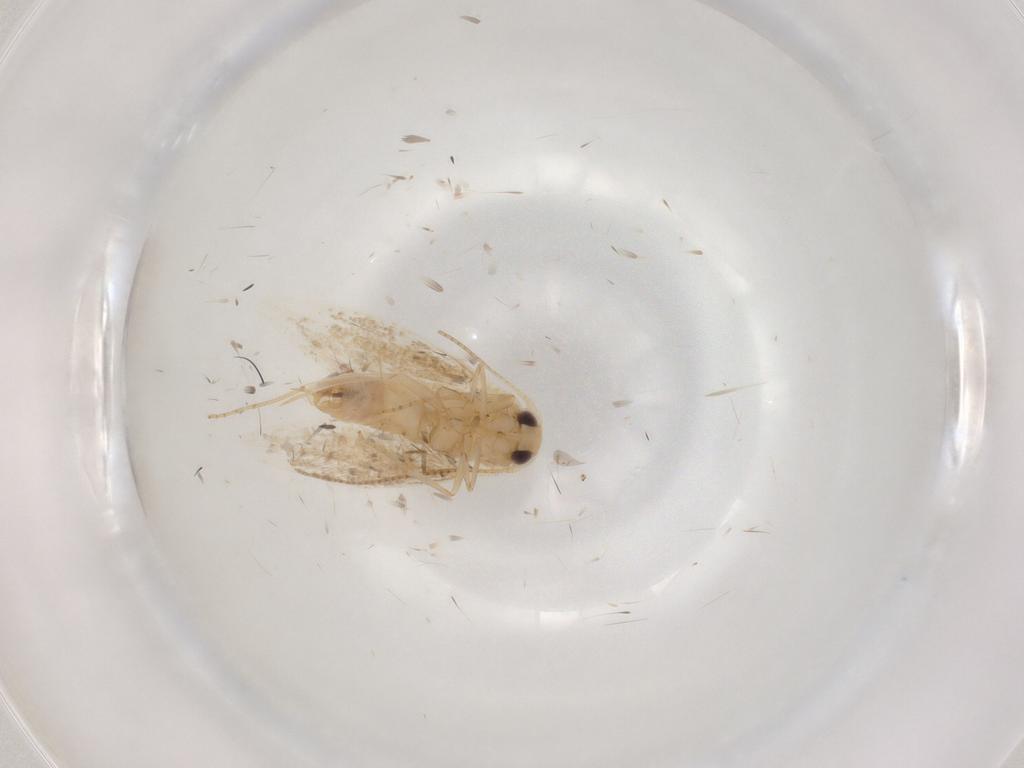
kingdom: Animalia
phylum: Arthropoda
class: Insecta
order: Lepidoptera
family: Bucculatricidae
